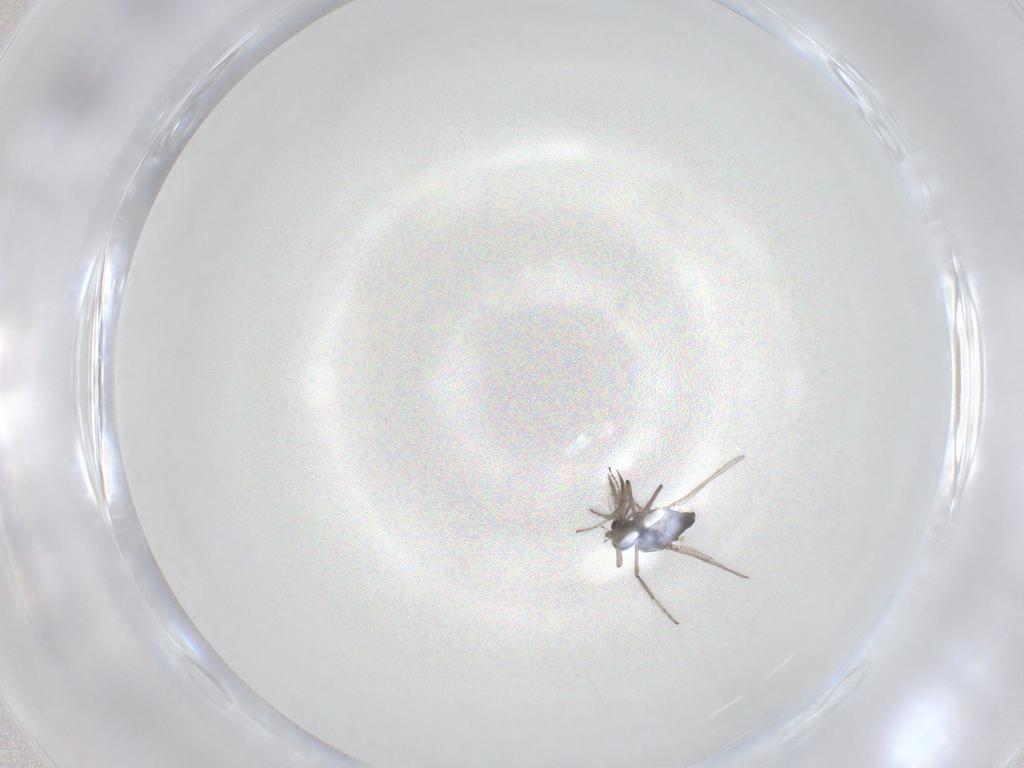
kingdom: Animalia
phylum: Arthropoda
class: Insecta
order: Diptera
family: Ceratopogonidae
